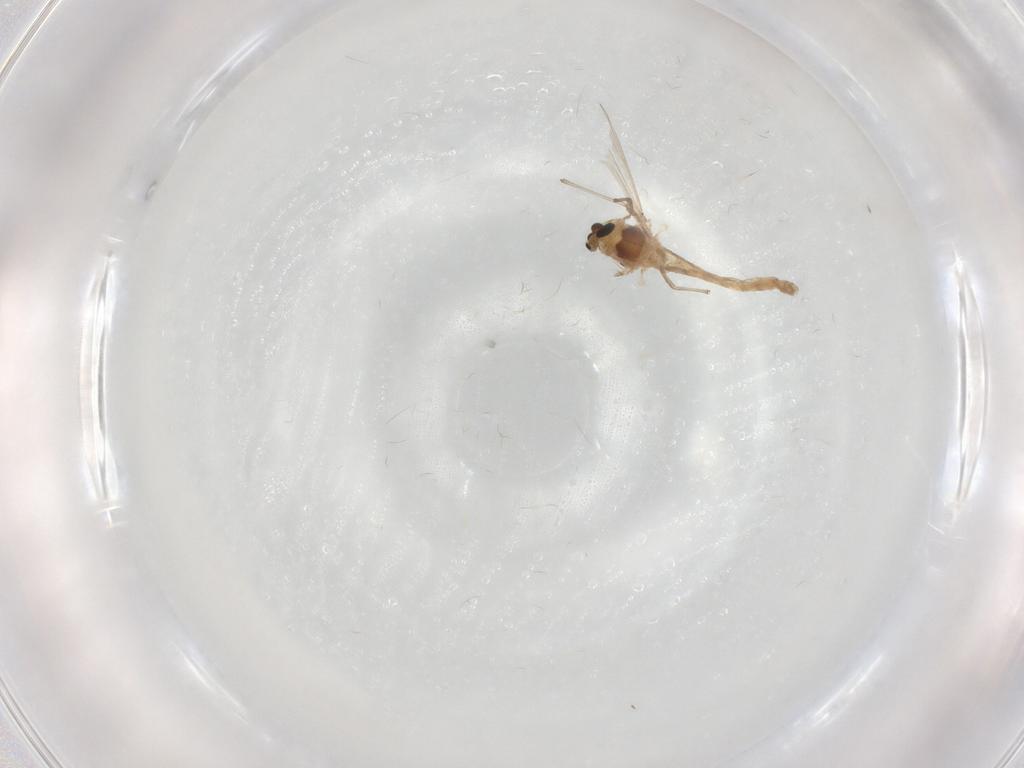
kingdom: Animalia
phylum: Arthropoda
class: Insecta
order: Diptera
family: Chironomidae
